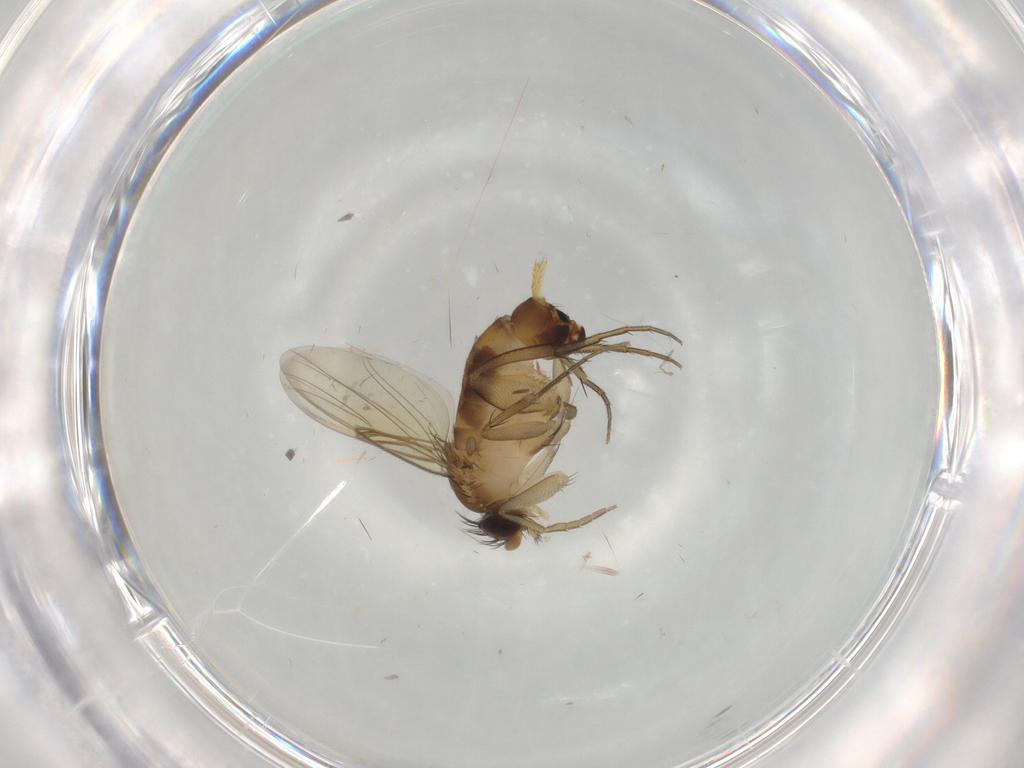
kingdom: Animalia
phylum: Arthropoda
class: Insecta
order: Diptera
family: Phoridae
